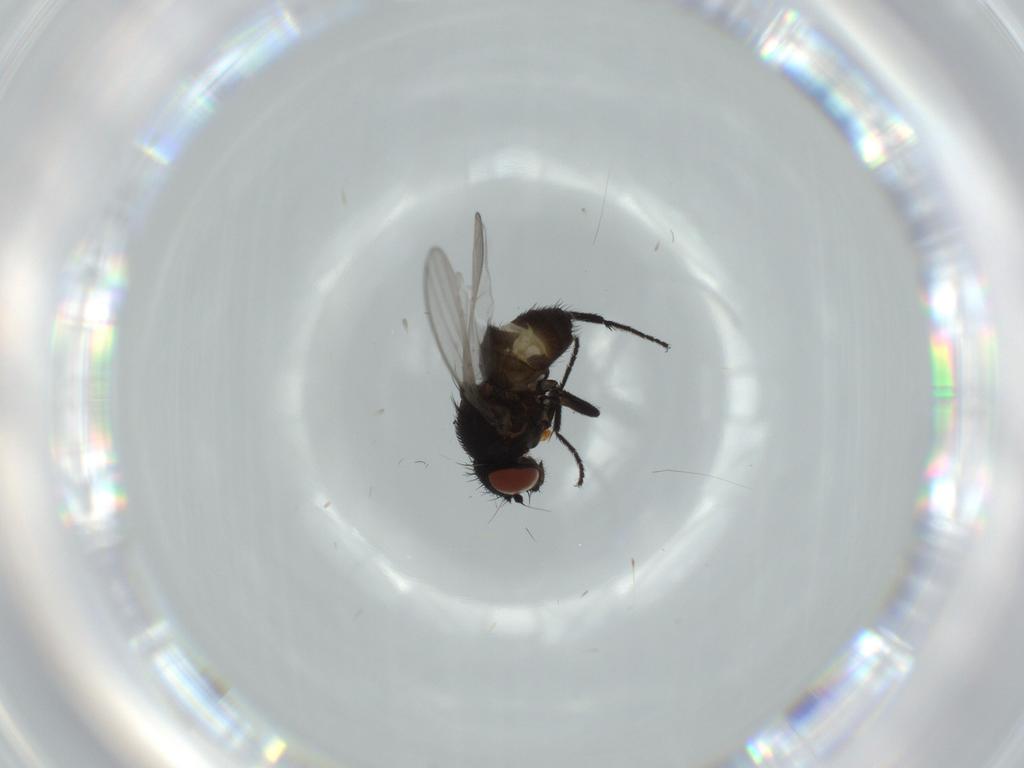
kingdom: Animalia
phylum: Arthropoda
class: Insecta
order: Diptera
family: Milichiidae
